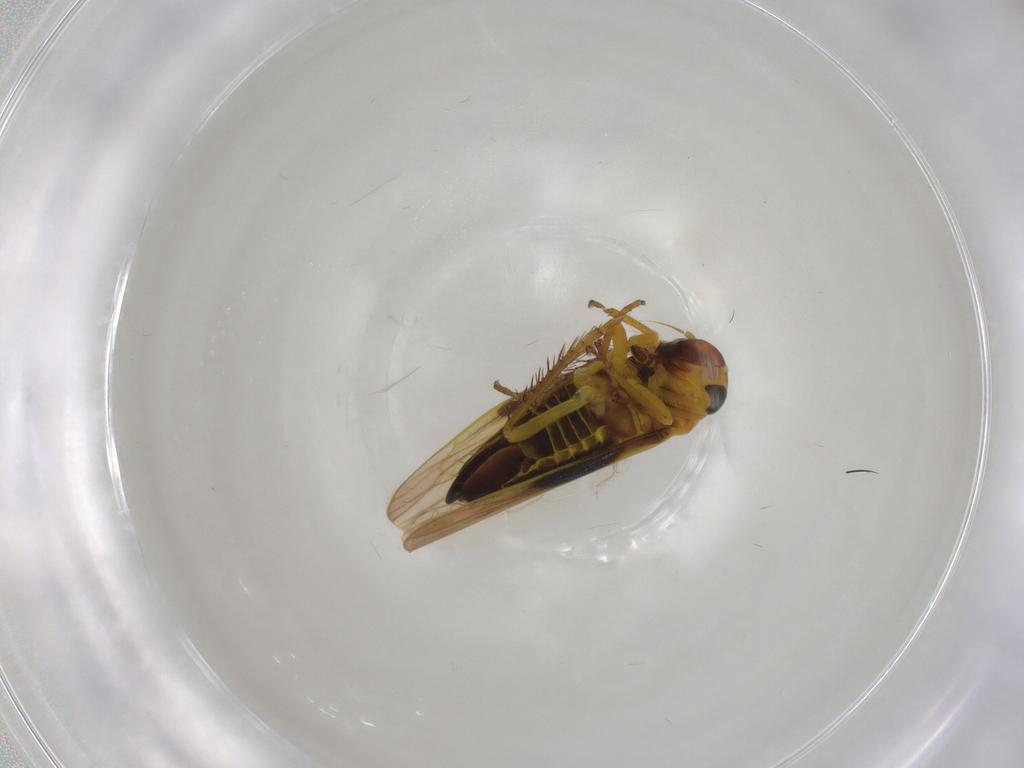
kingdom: Animalia
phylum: Arthropoda
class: Insecta
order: Hemiptera
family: Cicadellidae
